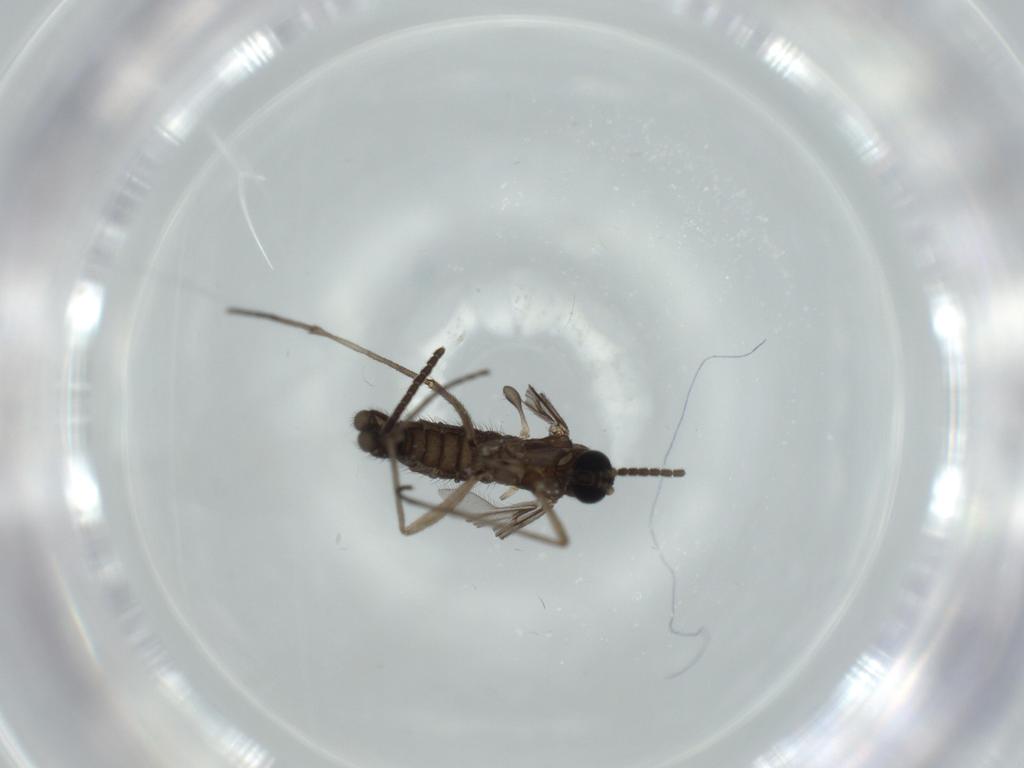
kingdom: Animalia
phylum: Arthropoda
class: Insecta
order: Diptera
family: Sciaridae
